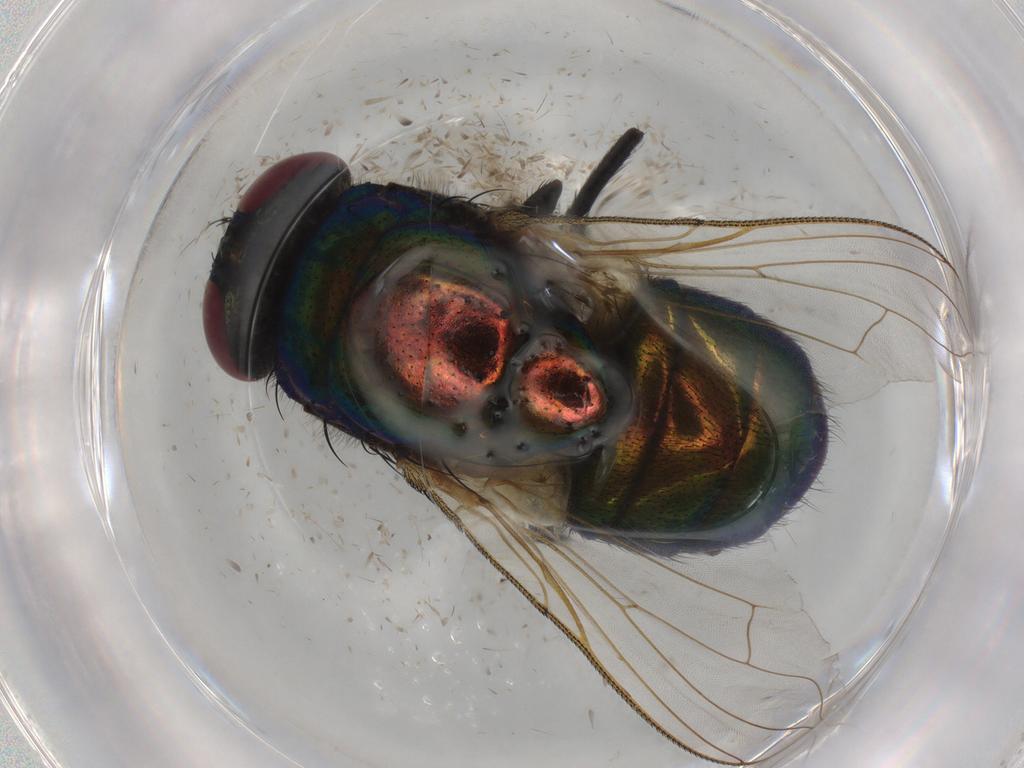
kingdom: Animalia
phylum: Arthropoda
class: Insecta
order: Diptera
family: Muscidae
